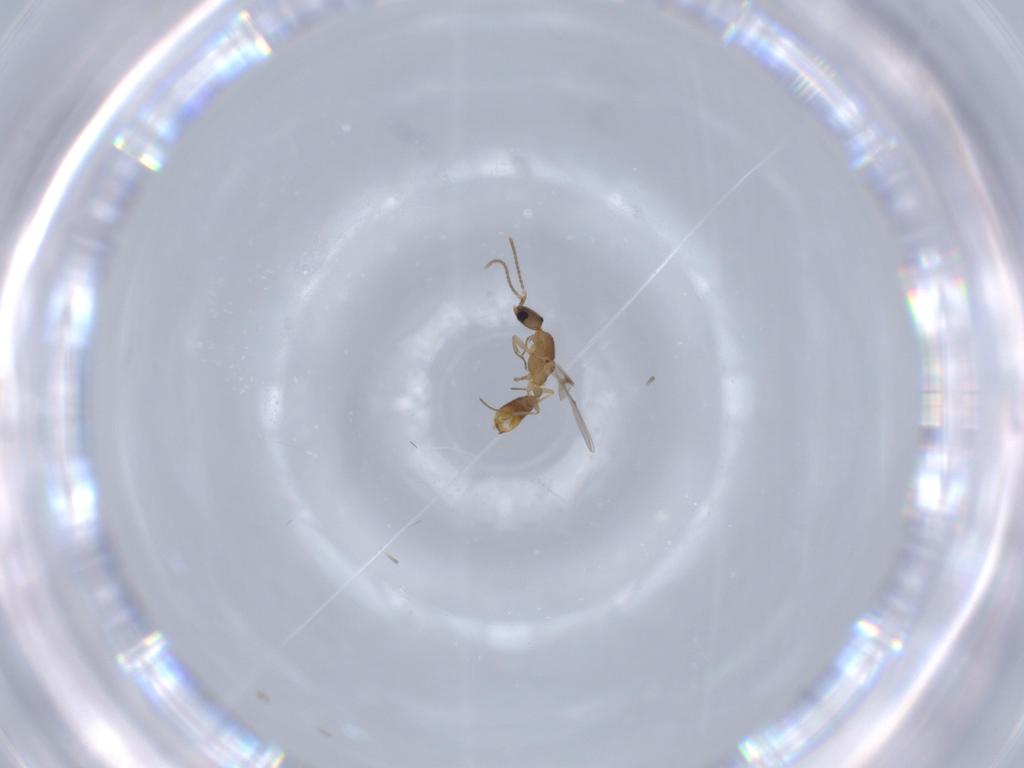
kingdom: Animalia
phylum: Arthropoda
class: Insecta
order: Hymenoptera
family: Formicidae
